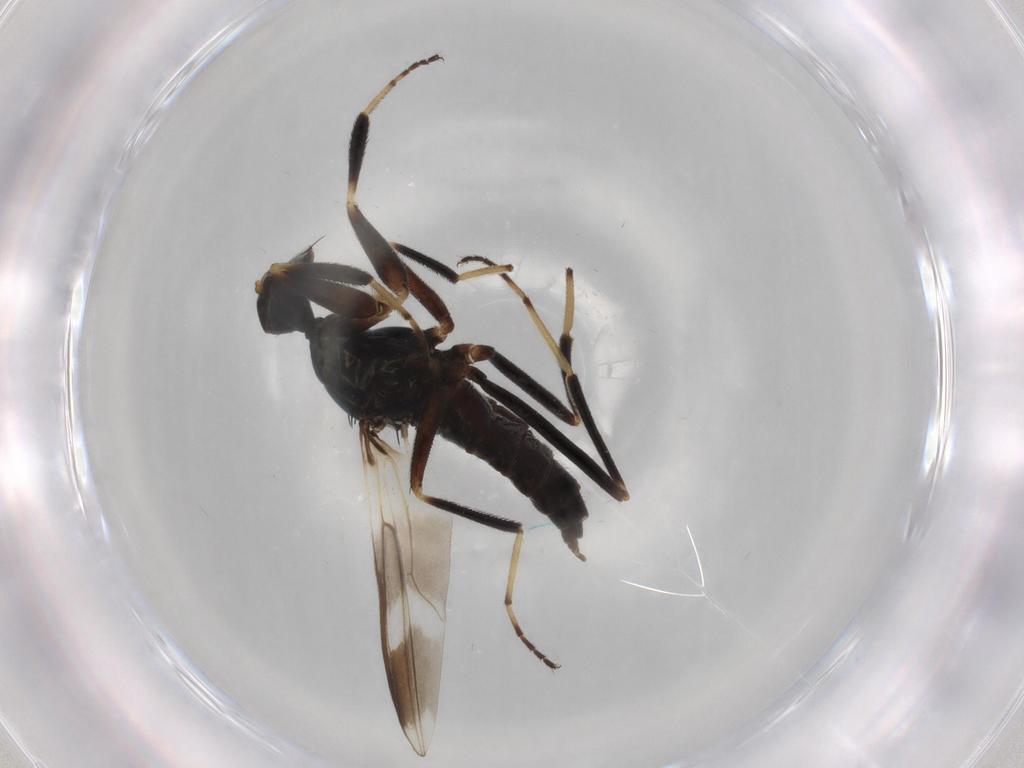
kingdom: Animalia
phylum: Arthropoda
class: Insecta
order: Diptera
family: Hybotidae
